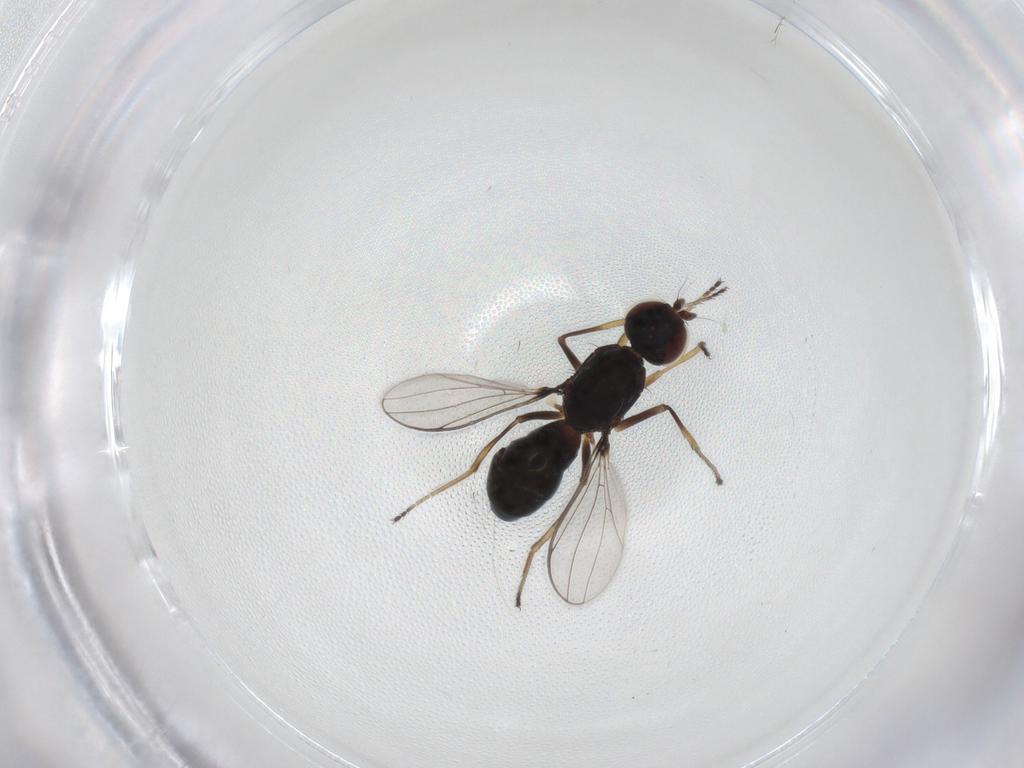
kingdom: Animalia
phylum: Arthropoda
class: Insecta
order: Diptera
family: Limoniidae
